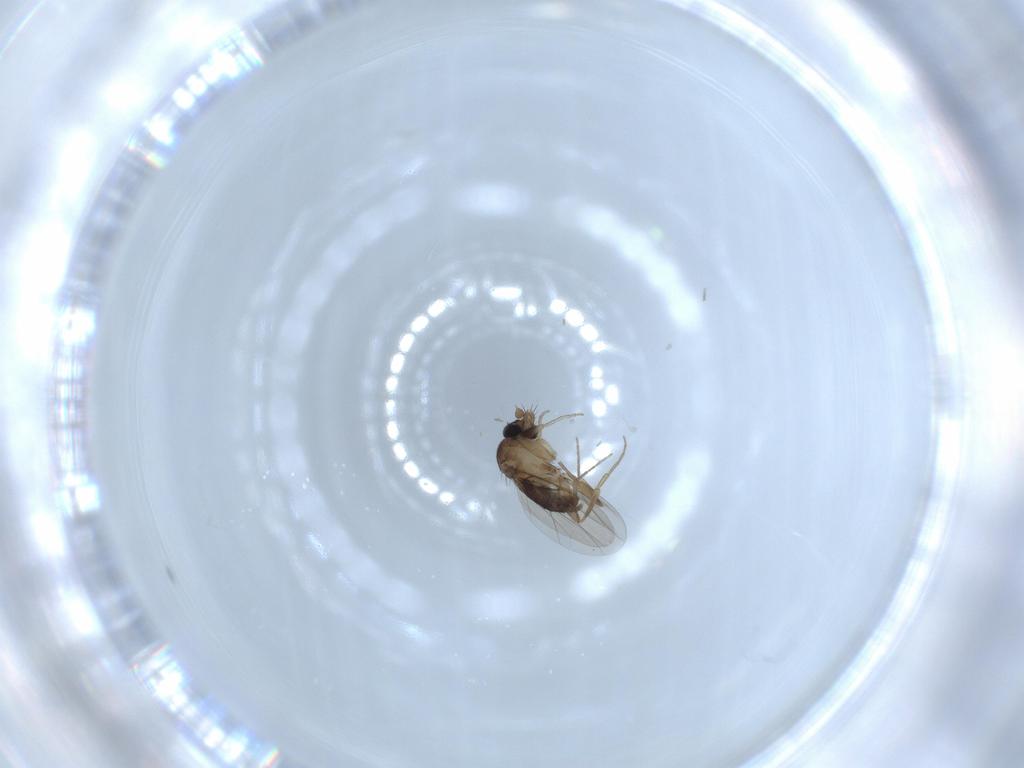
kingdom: Animalia
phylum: Arthropoda
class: Insecta
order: Diptera
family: Phoridae
